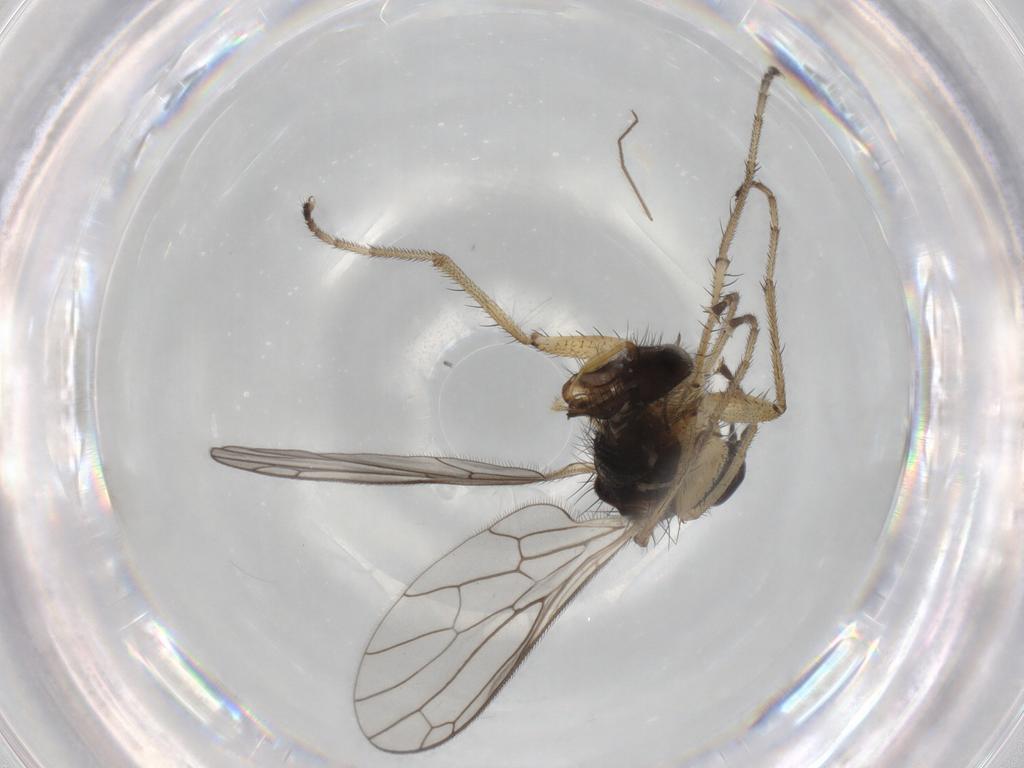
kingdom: Animalia
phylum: Arthropoda
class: Insecta
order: Diptera
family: Sciaridae
